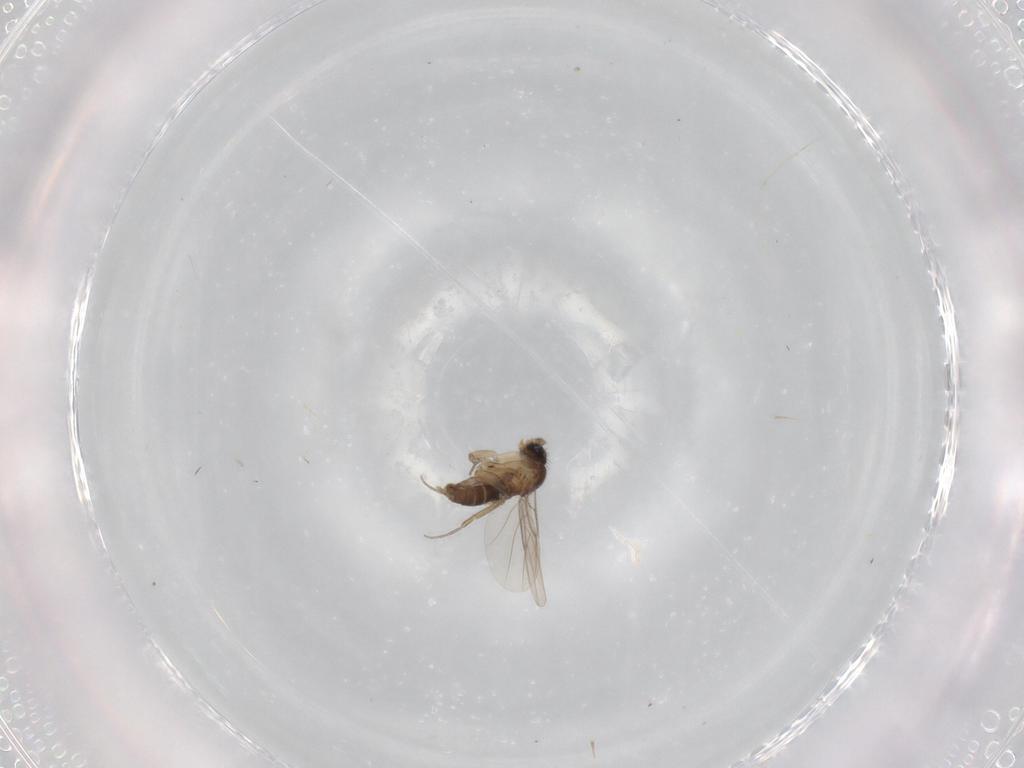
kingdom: Animalia
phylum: Arthropoda
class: Insecta
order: Diptera
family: Phoridae
